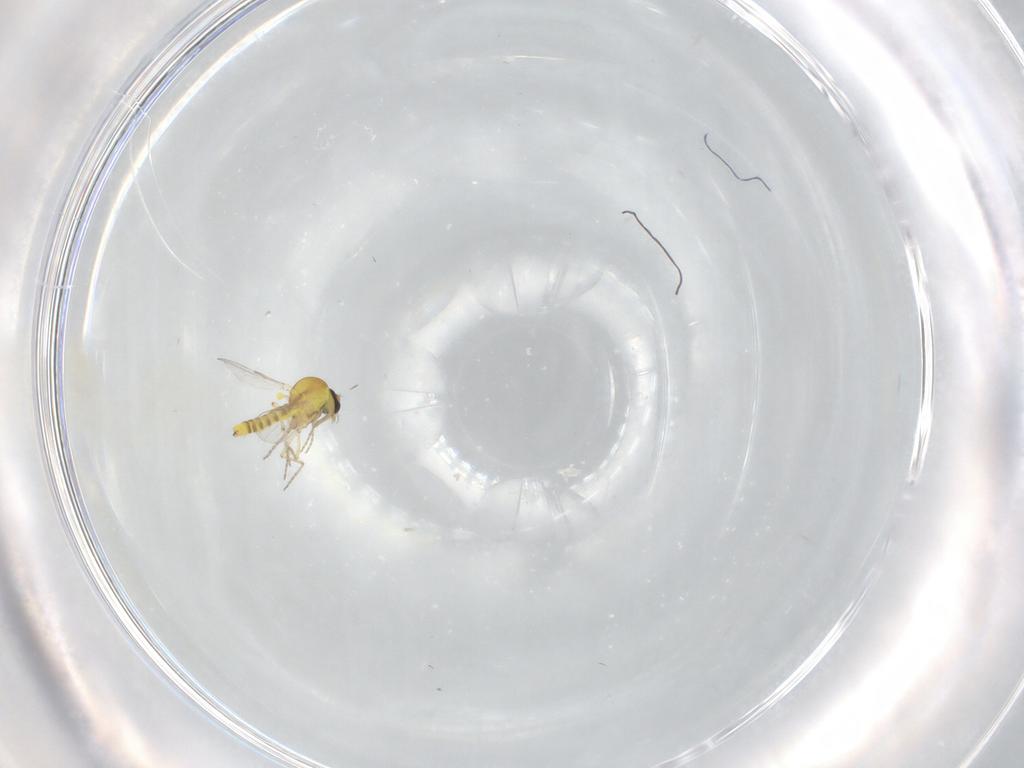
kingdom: Animalia
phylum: Arthropoda
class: Insecta
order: Diptera
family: Ceratopogonidae
